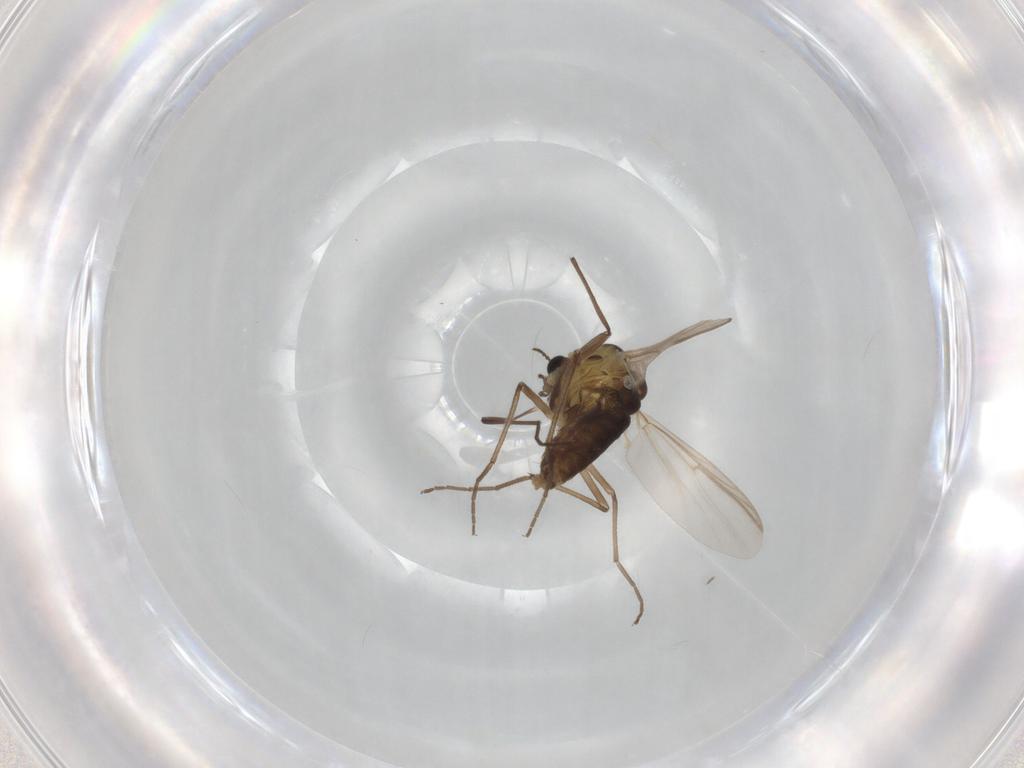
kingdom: Animalia
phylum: Arthropoda
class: Insecta
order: Diptera
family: Chironomidae
